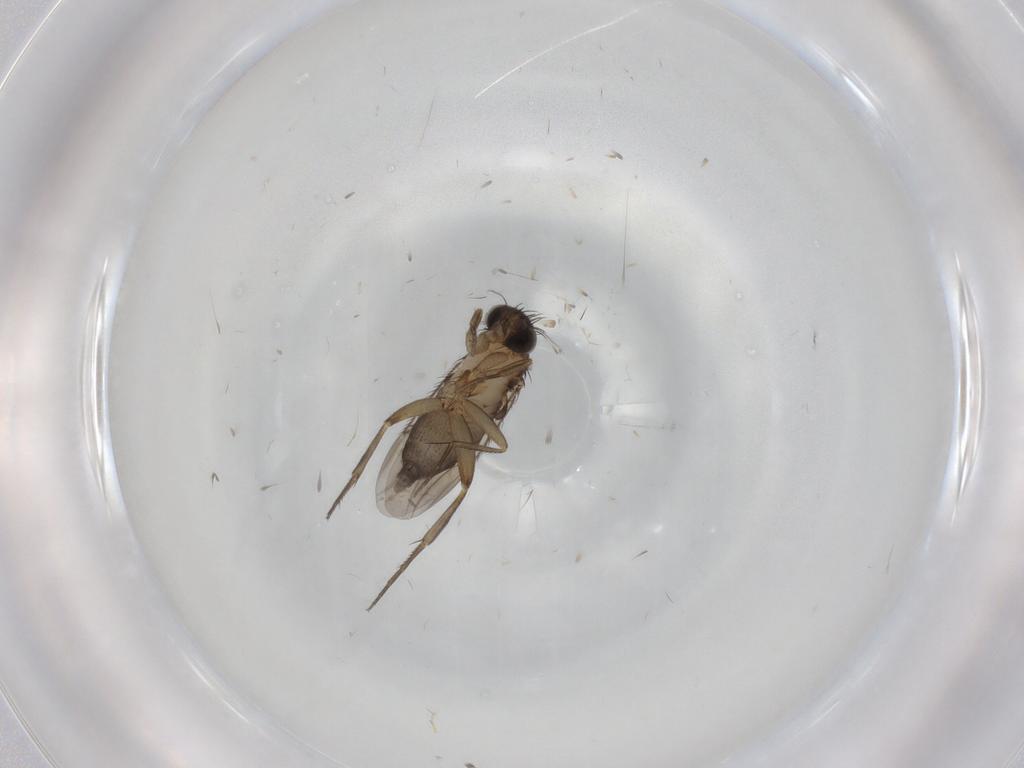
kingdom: Animalia
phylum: Arthropoda
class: Insecta
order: Diptera
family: Phoridae
